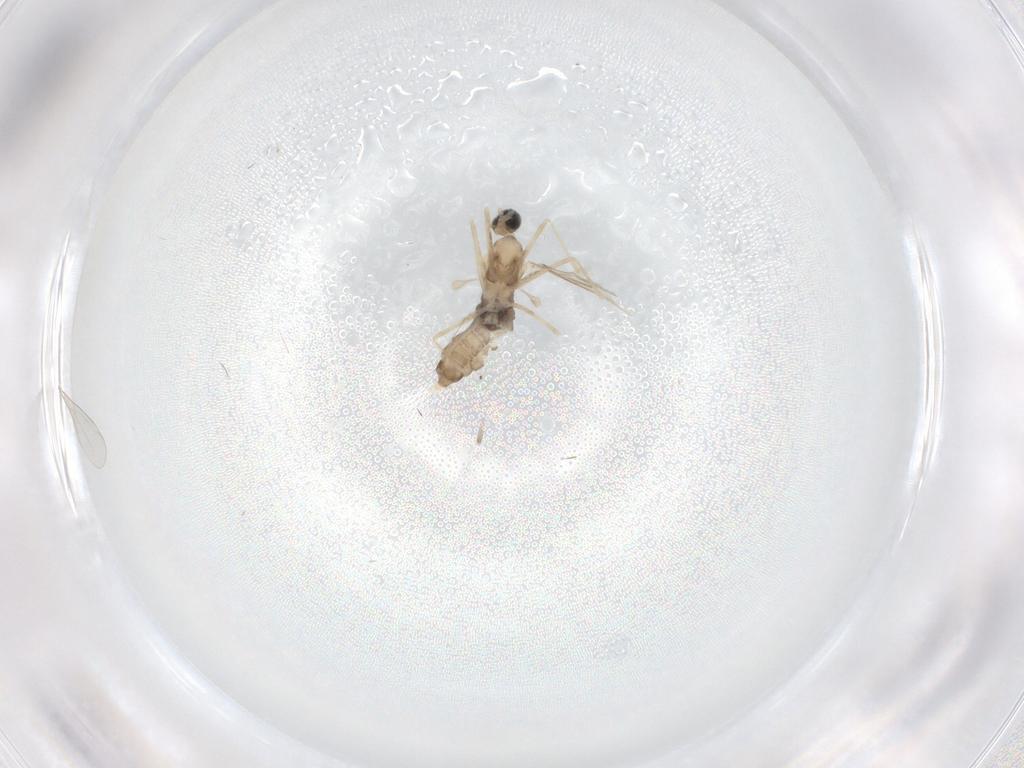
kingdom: Animalia
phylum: Arthropoda
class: Insecta
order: Diptera
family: Cecidomyiidae
